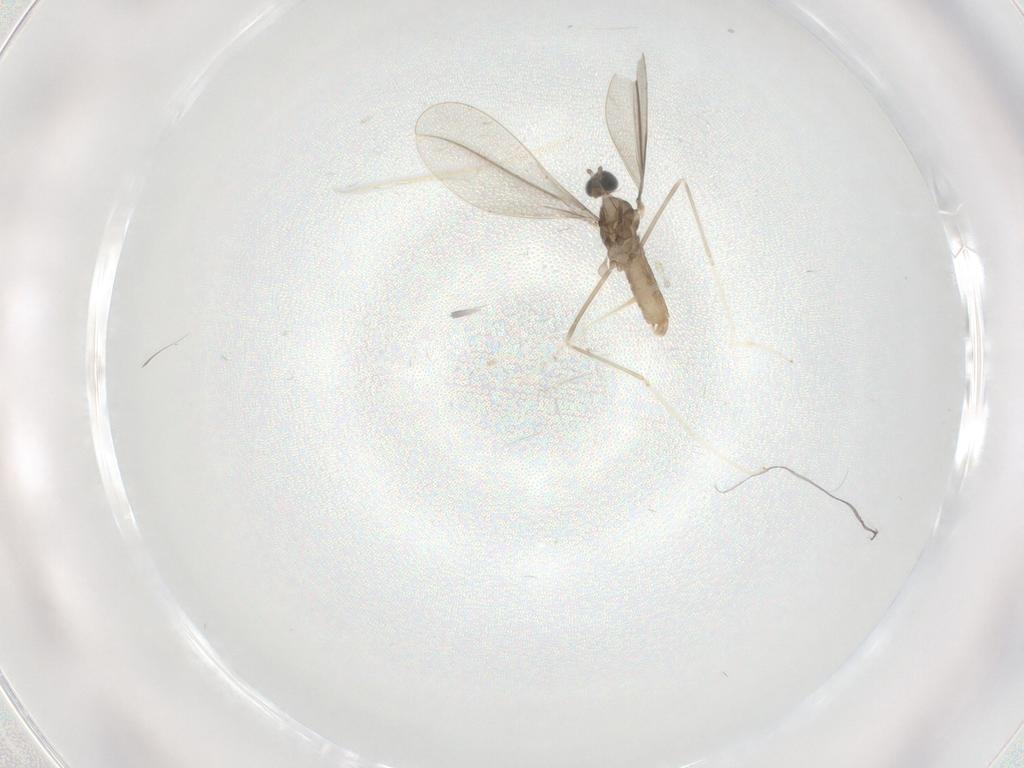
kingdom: Animalia
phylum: Arthropoda
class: Insecta
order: Diptera
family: Cecidomyiidae
